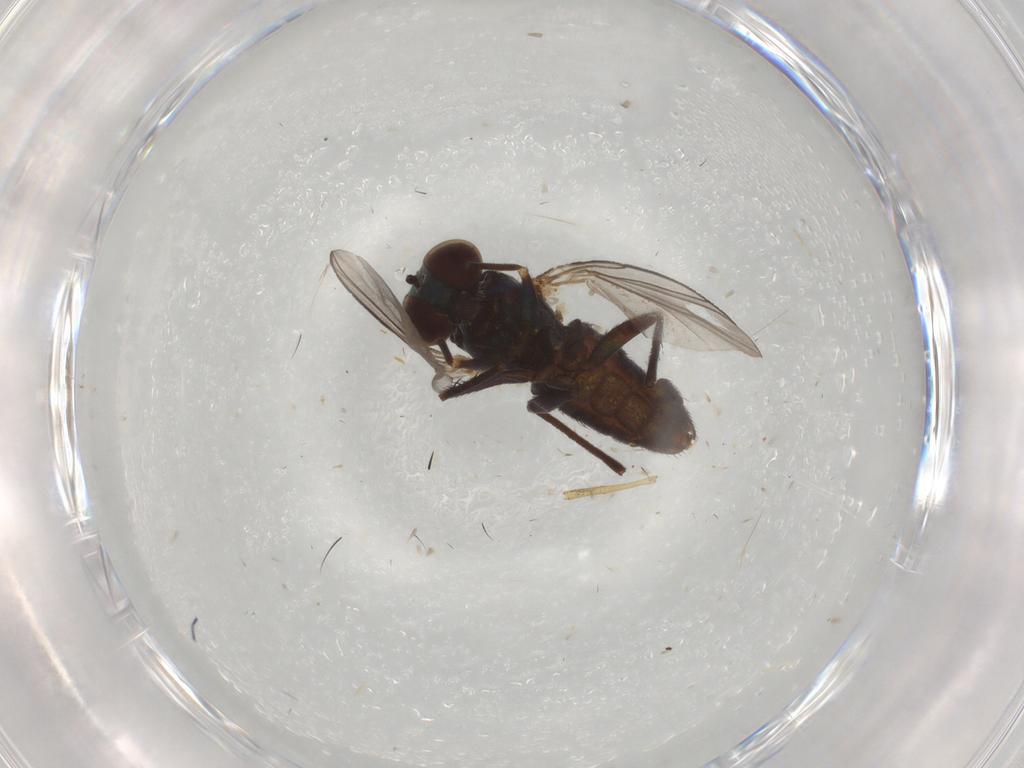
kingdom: Animalia
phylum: Arthropoda
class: Insecta
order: Diptera
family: Dolichopodidae
